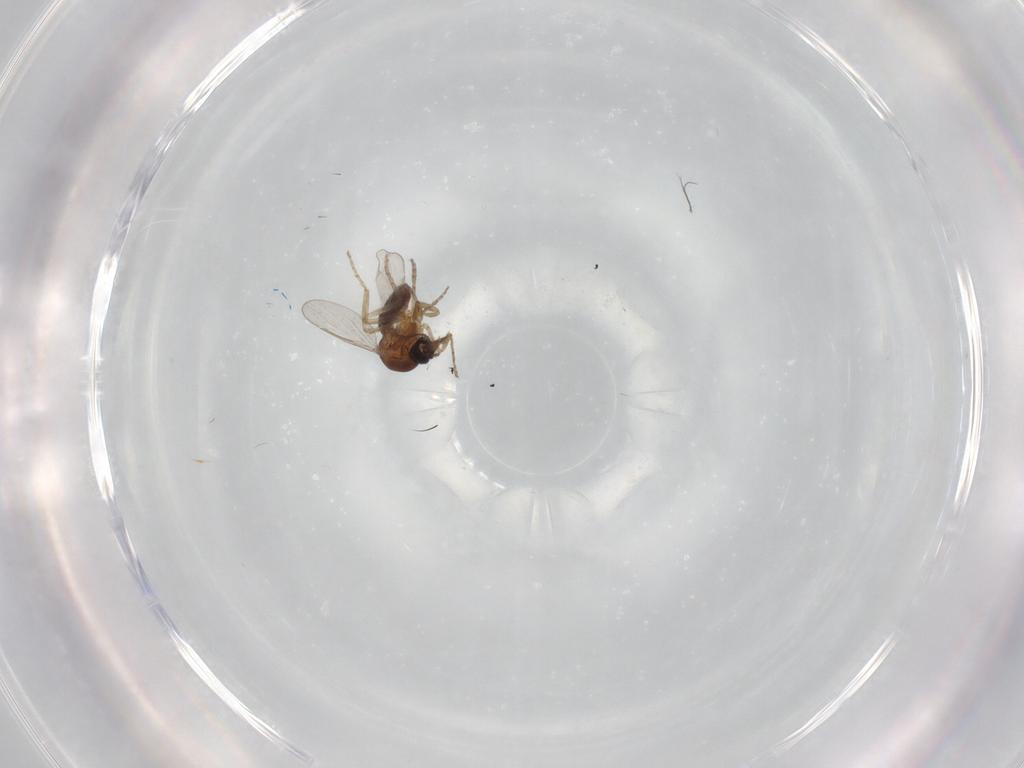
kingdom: Animalia
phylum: Arthropoda
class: Insecta
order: Diptera
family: Ceratopogonidae
